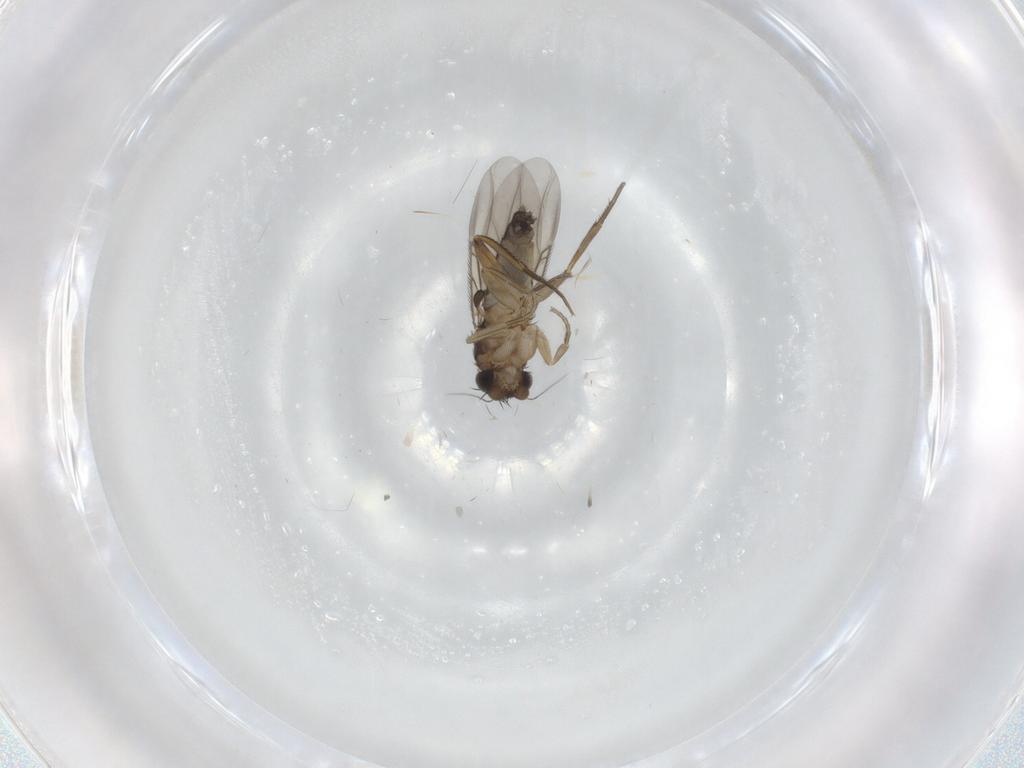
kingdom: Animalia
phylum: Arthropoda
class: Insecta
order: Diptera
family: Phoridae
